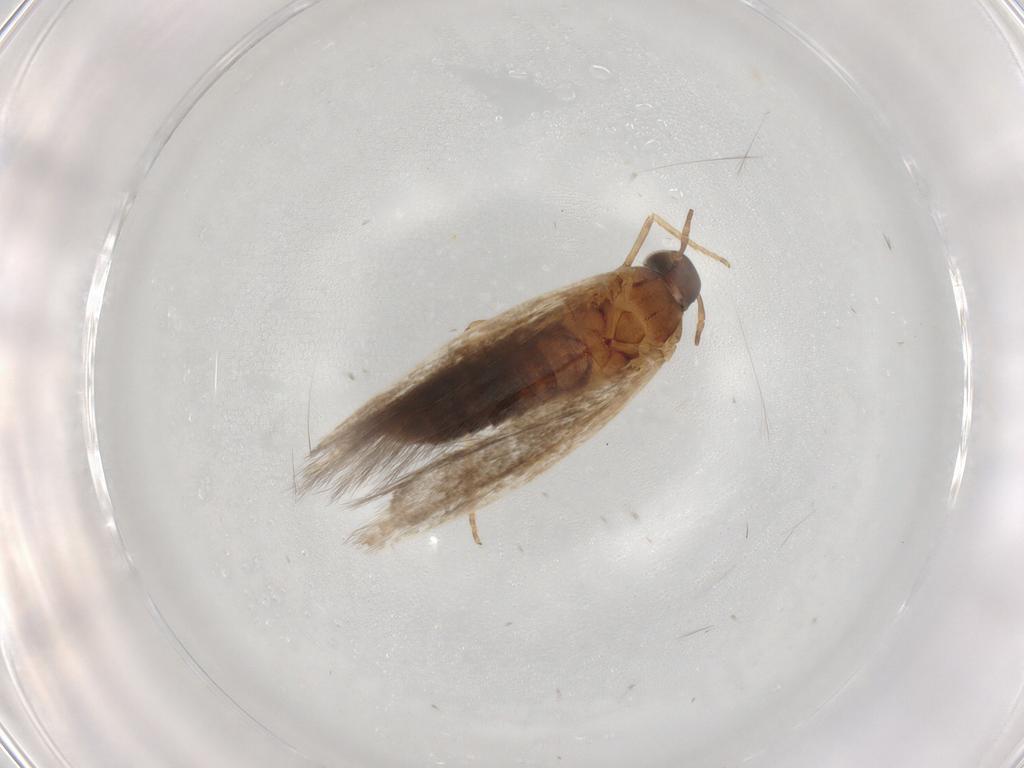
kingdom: Animalia
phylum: Arthropoda
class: Insecta
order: Lepidoptera
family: Gelechiidae
